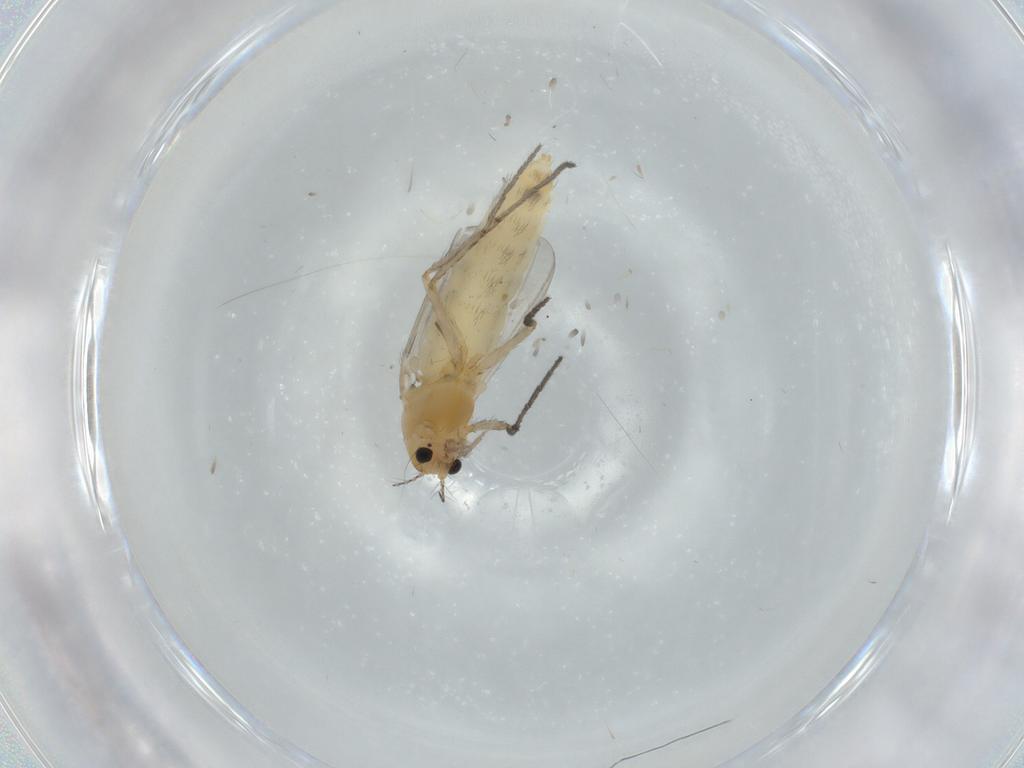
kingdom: Animalia
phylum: Arthropoda
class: Insecta
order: Diptera
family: Chironomidae
